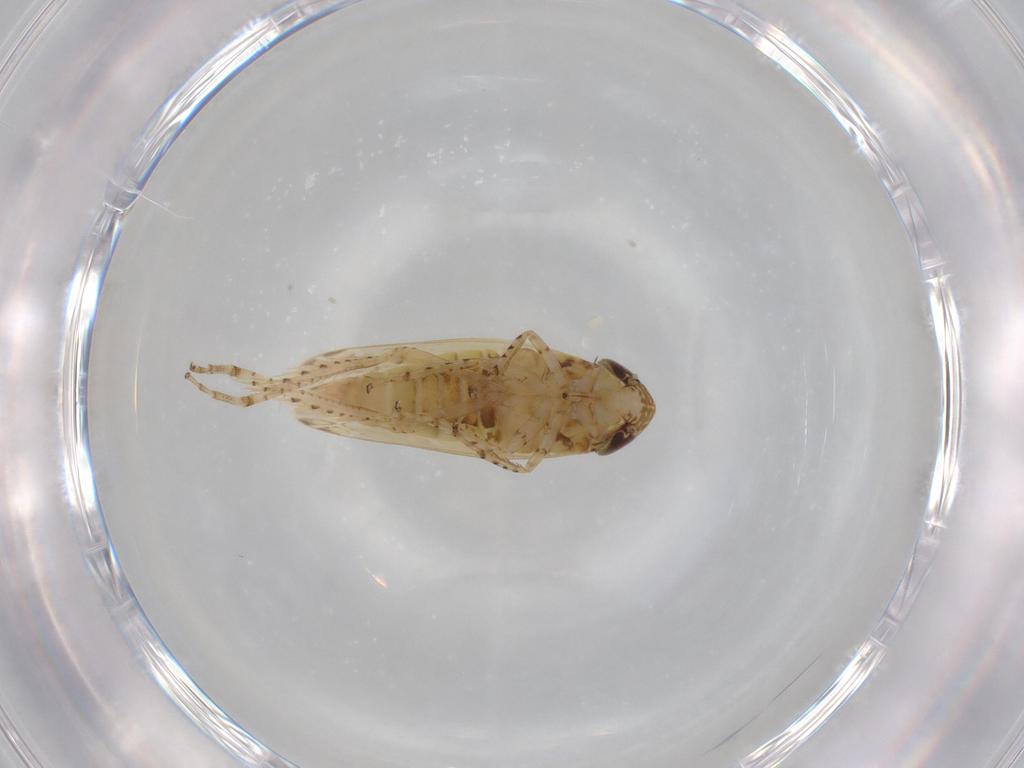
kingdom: Animalia
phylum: Arthropoda
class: Insecta
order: Hemiptera
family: Cicadellidae
